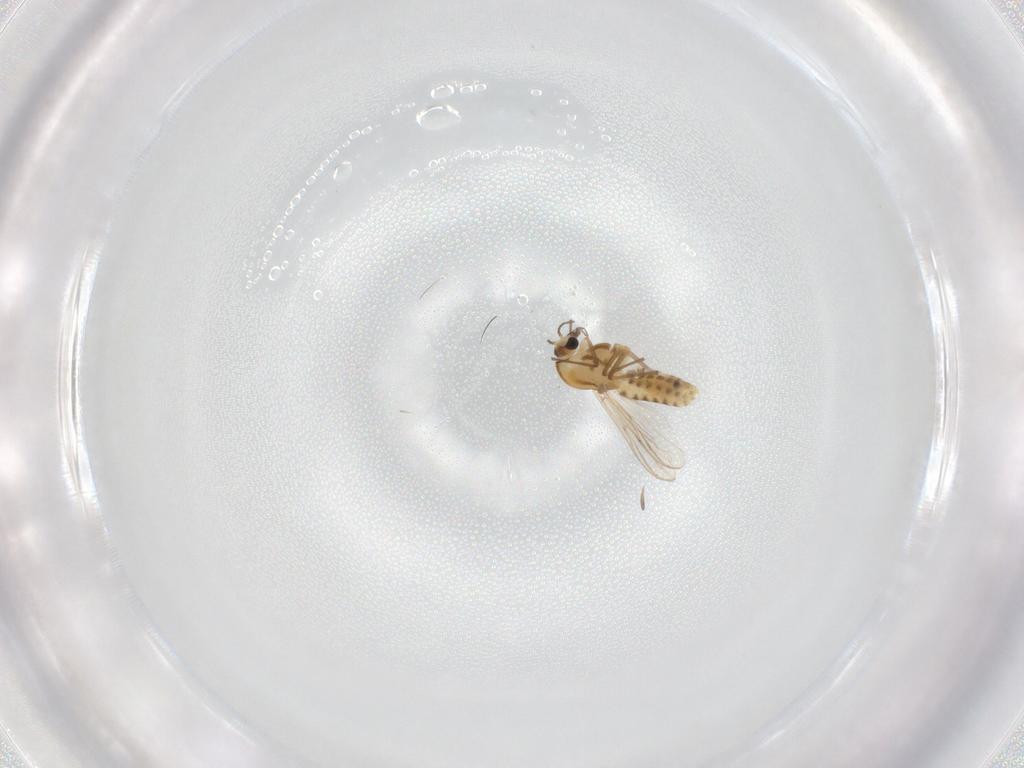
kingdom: Animalia
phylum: Arthropoda
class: Insecta
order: Diptera
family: Chironomidae
